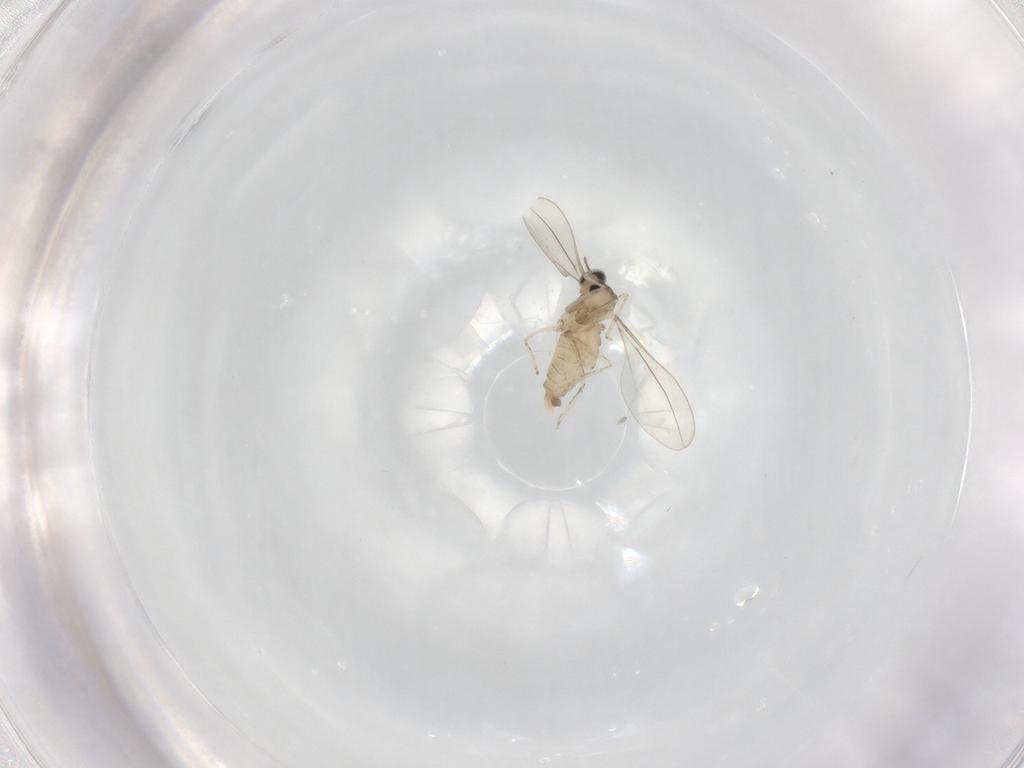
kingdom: Animalia
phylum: Arthropoda
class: Insecta
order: Diptera
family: Cecidomyiidae
